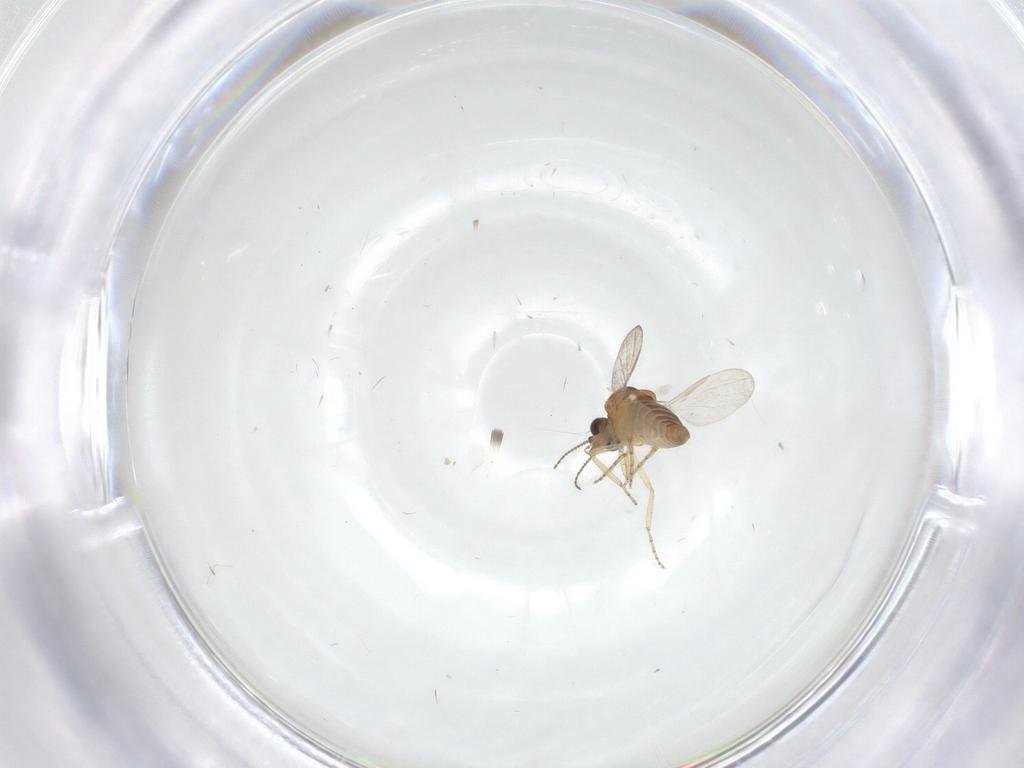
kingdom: Animalia
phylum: Arthropoda
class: Insecta
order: Diptera
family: Ceratopogonidae
